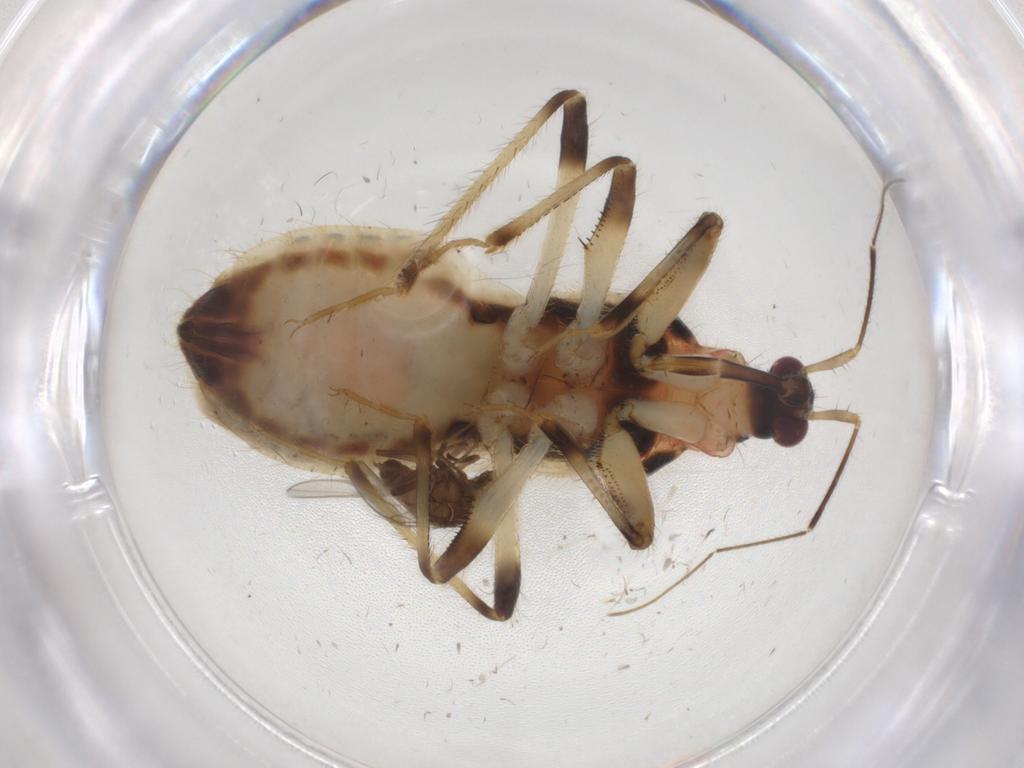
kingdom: Animalia
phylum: Arthropoda
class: Insecta
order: Hemiptera
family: Nabidae
